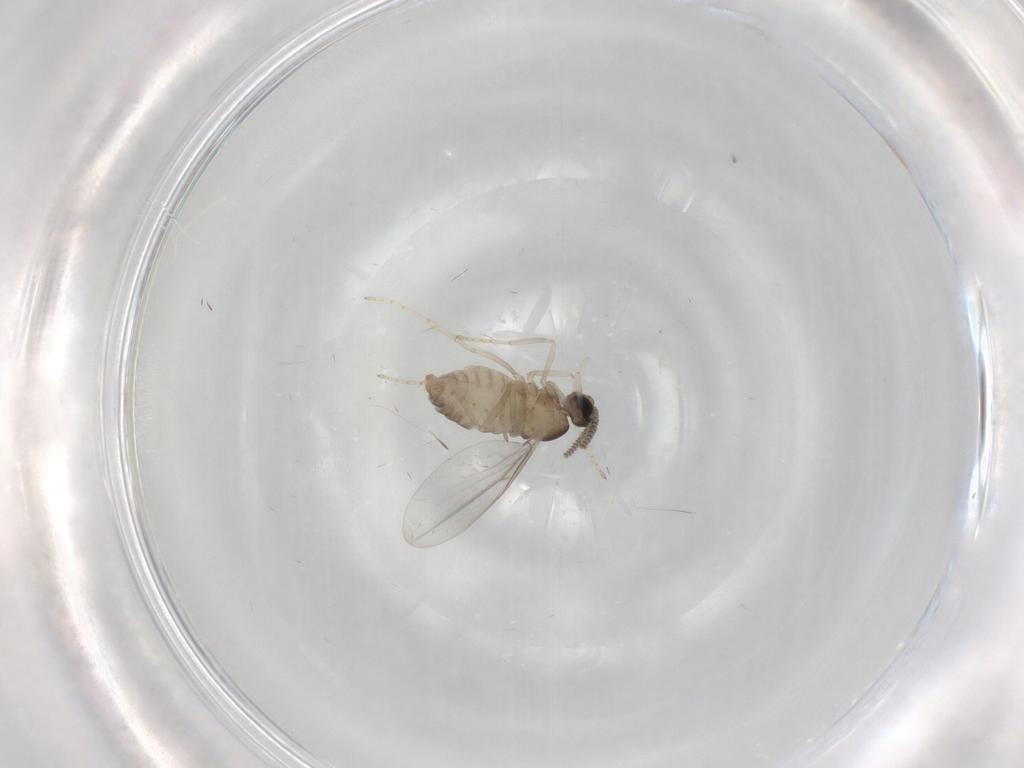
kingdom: Animalia
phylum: Arthropoda
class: Insecta
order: Diptera
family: Cecidomyiidae
